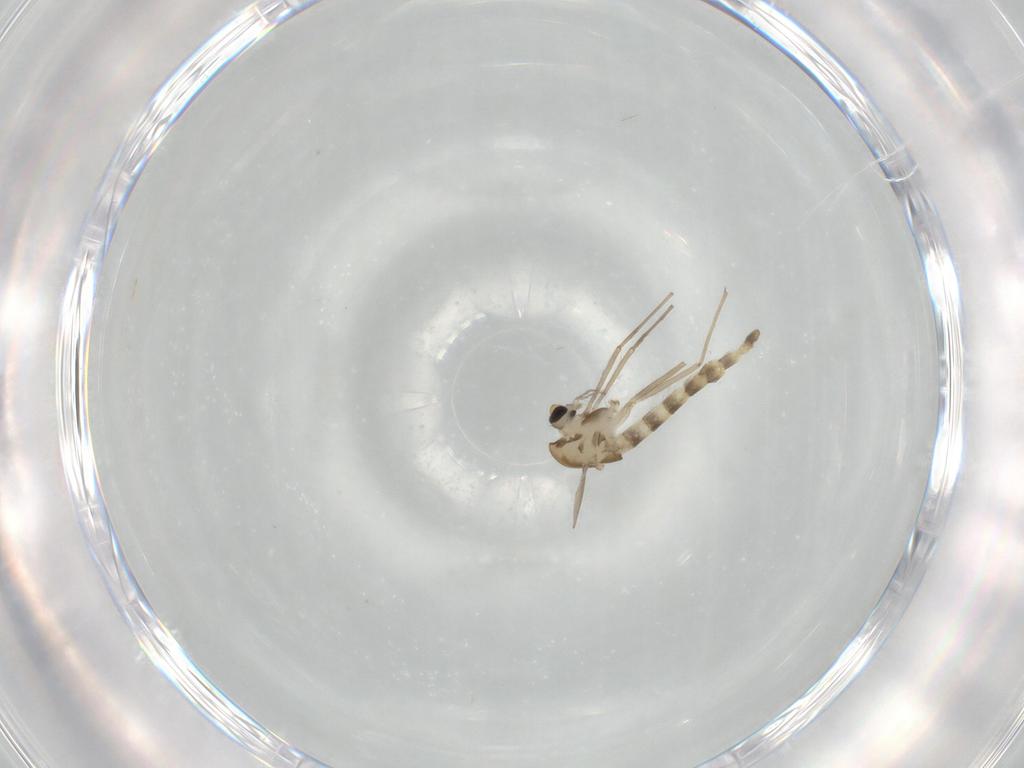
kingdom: Animalia
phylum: Arthropoda
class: Insecta
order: Diptera
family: Chironomidae
